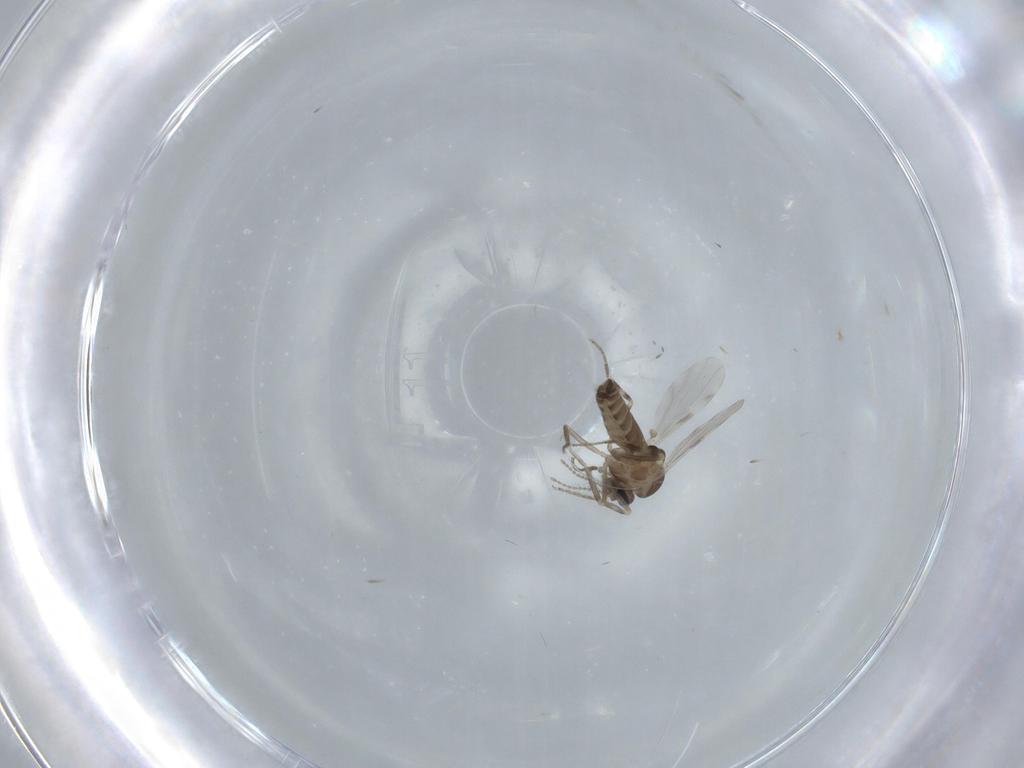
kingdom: Animalia
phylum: Arthropoda
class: Insecta
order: Diptera
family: Ceratopogonidae
